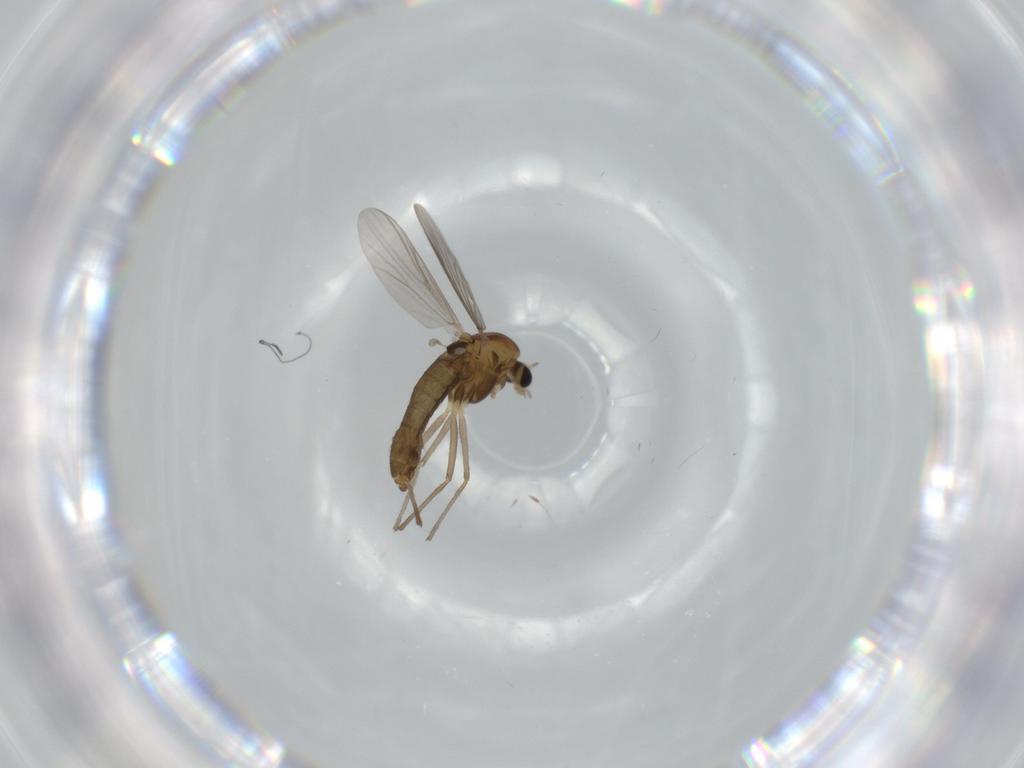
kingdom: Animalia
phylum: Arthropoda
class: Insecta
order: Diptera
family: Chironomidae
